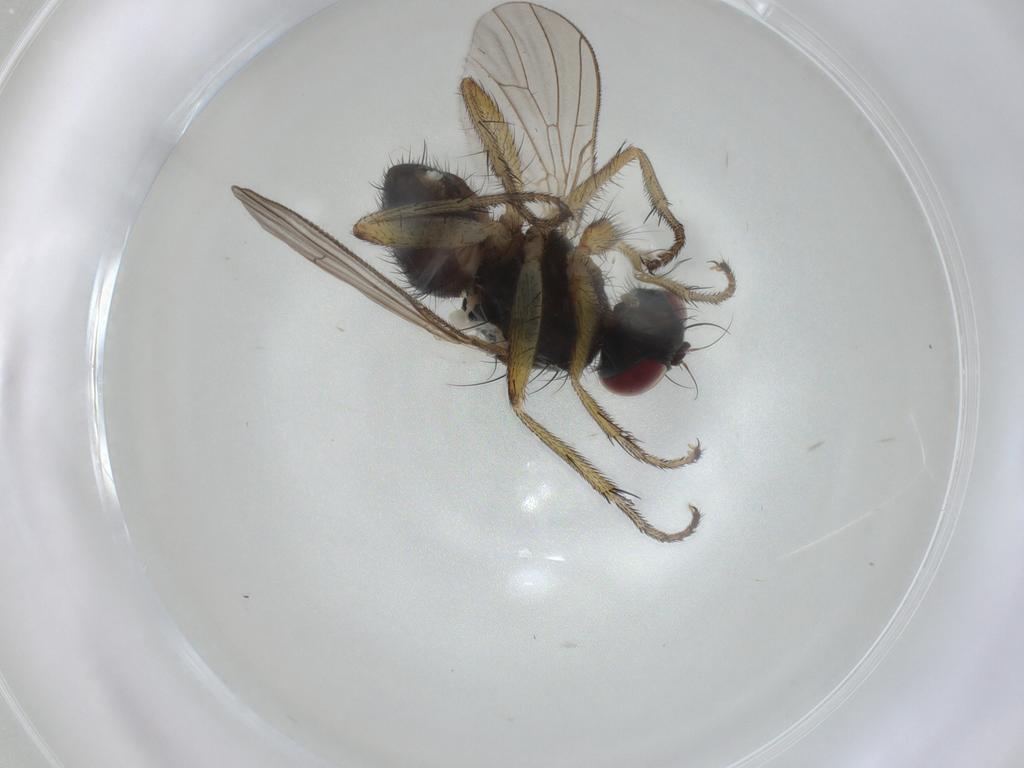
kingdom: Animalia
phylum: Arthropoda
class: Insecta
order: Diptera
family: Muscidae
